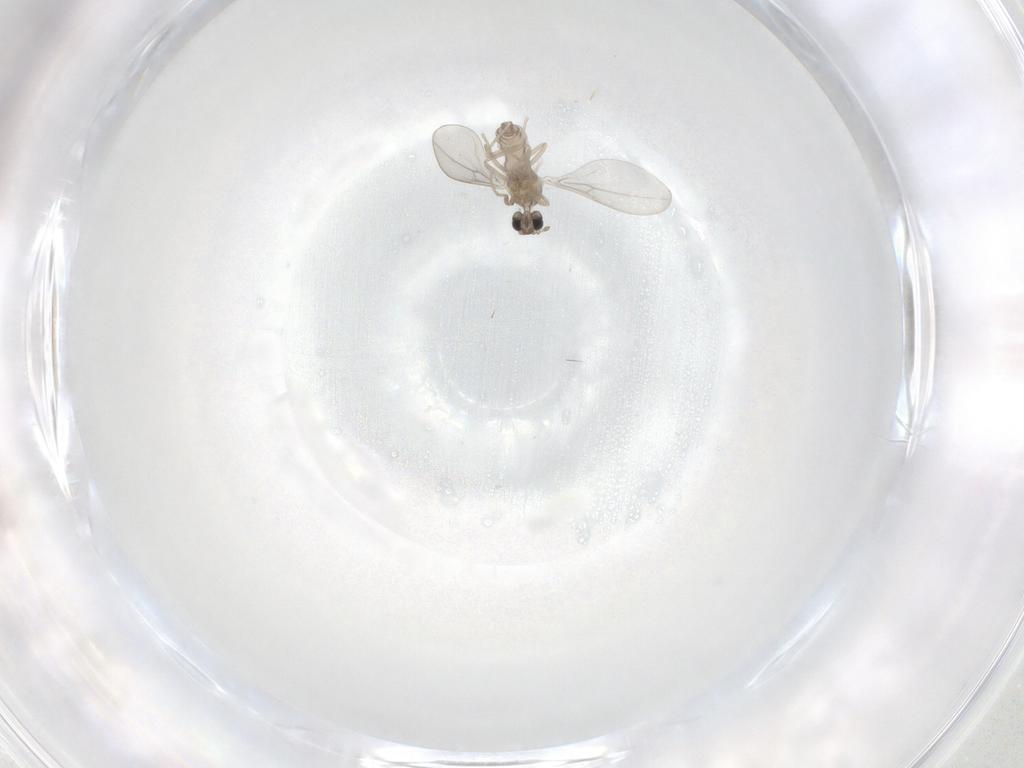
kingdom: Animalia
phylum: Arthropoda
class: Insecta
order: Diptera
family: Cecidomyiidae
